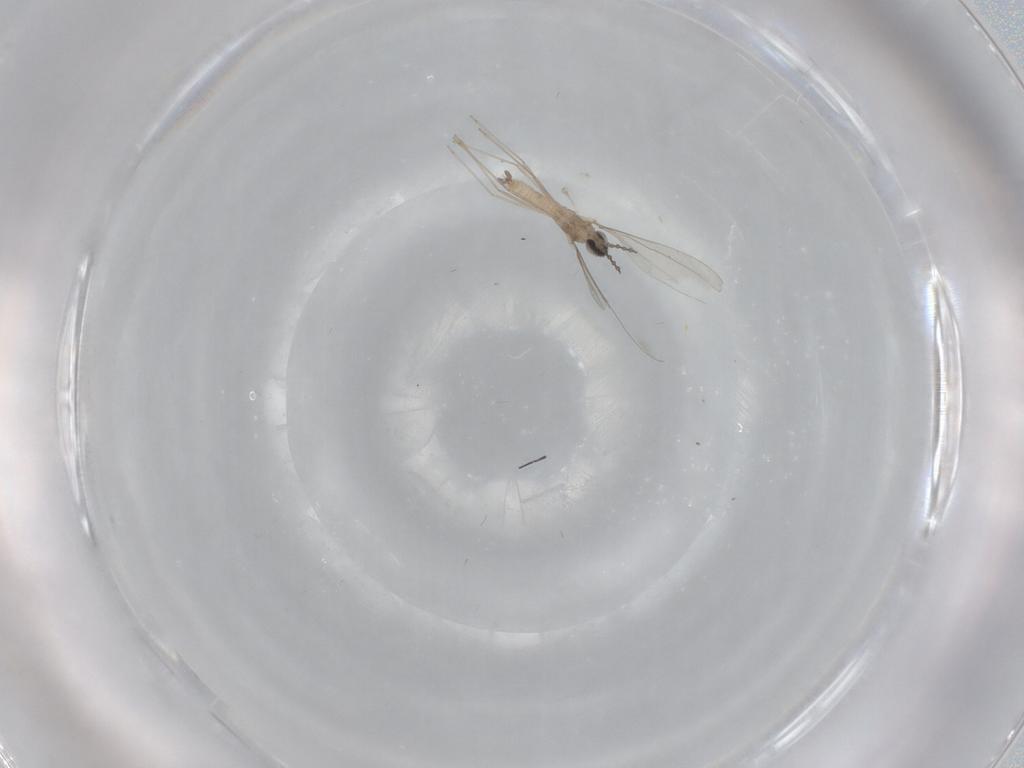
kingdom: Animalia
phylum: Arthropoda
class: Insecta
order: Diptera
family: Cecidomyiidae
